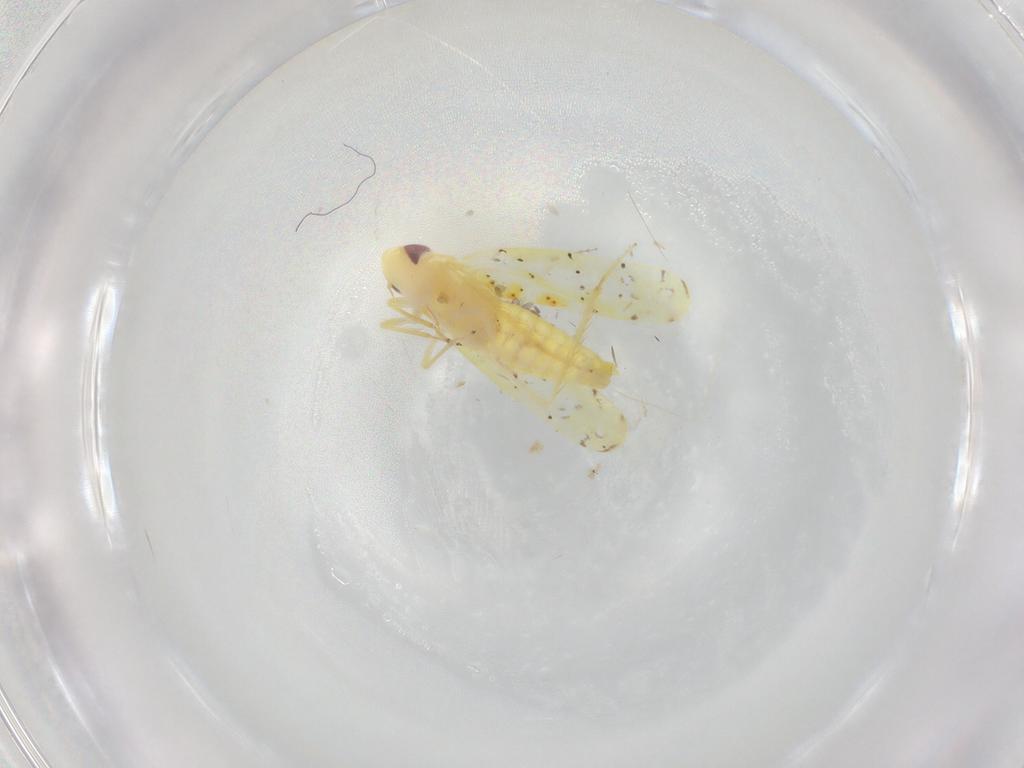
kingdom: Animalia
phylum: Arthropoda
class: Insecta
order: Hemiptera
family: Cicadellidae
